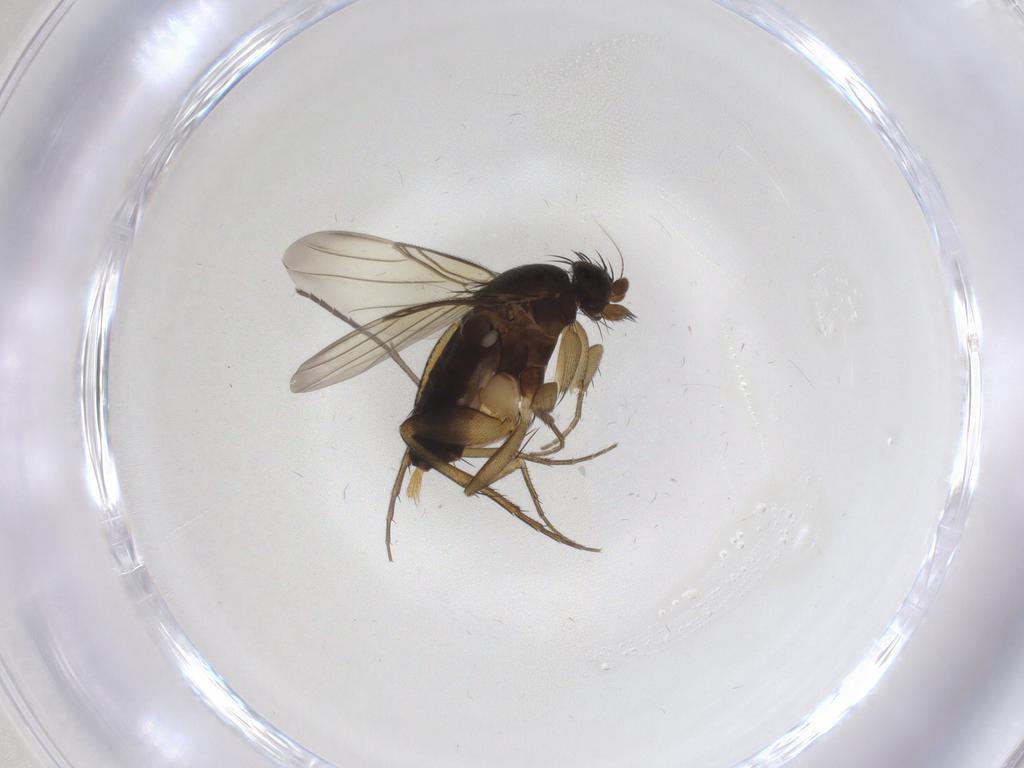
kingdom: Animalia
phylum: Arthropoda
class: Insecta
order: Diptera
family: Phoridae
